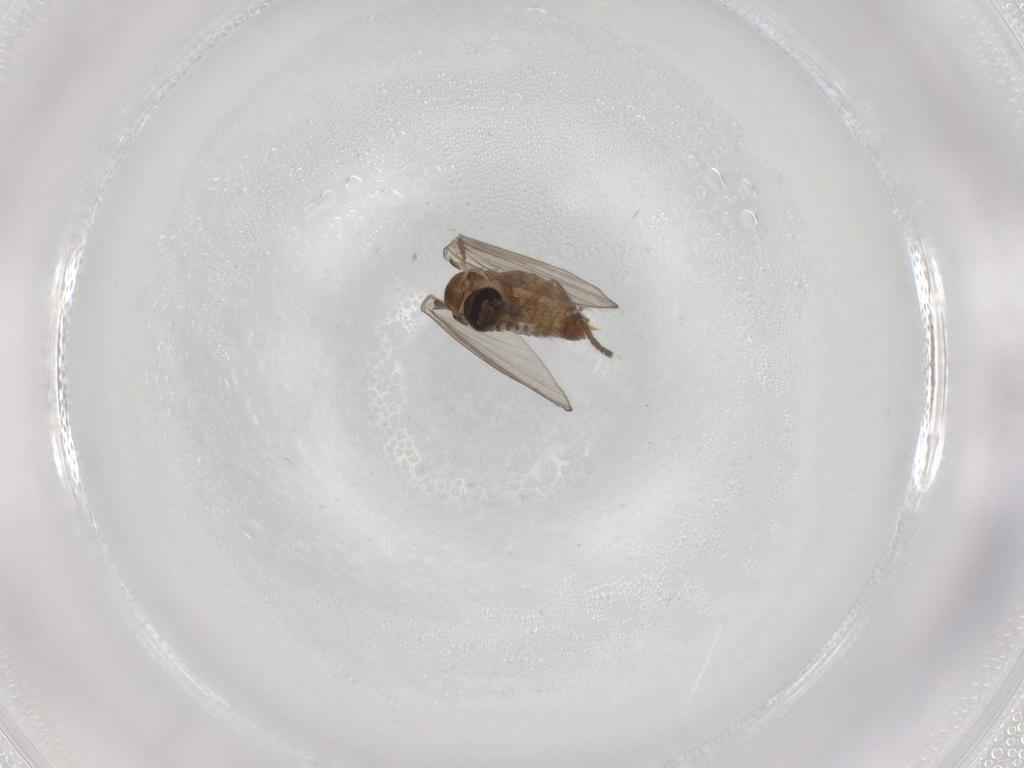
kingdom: Animalia
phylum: Arthropoda
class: Insecta
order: Diptera
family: Psychodidae
